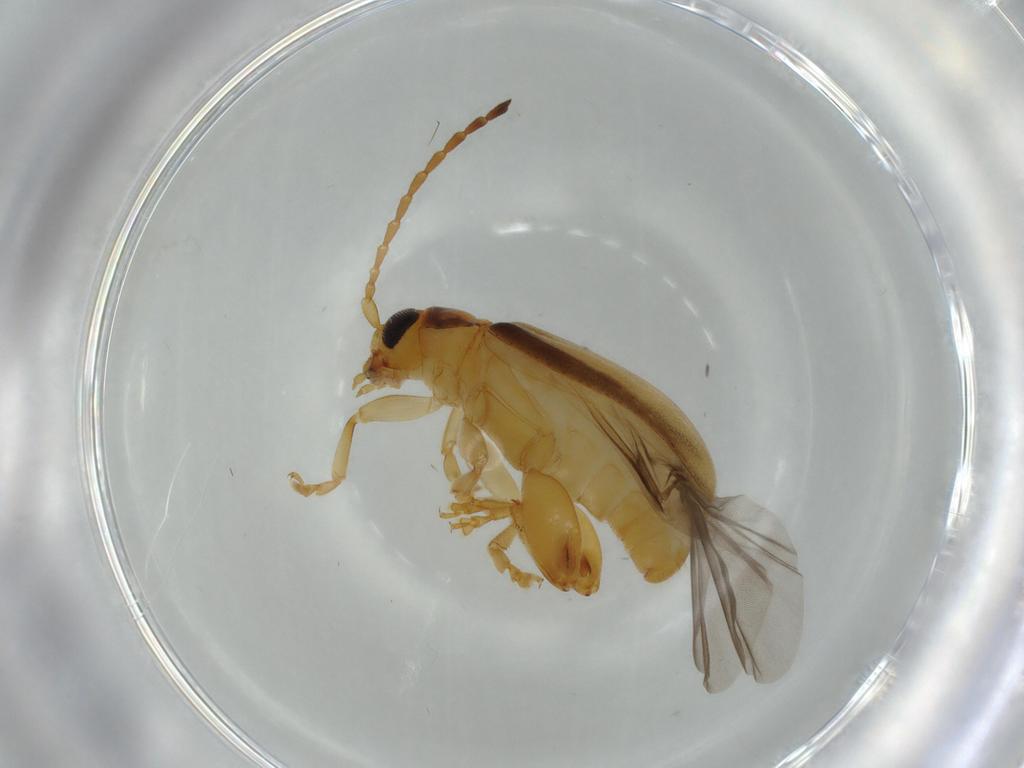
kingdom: Animalia
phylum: Arthropoda
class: Insecta
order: Coleoptera
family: Chrysomelidae
